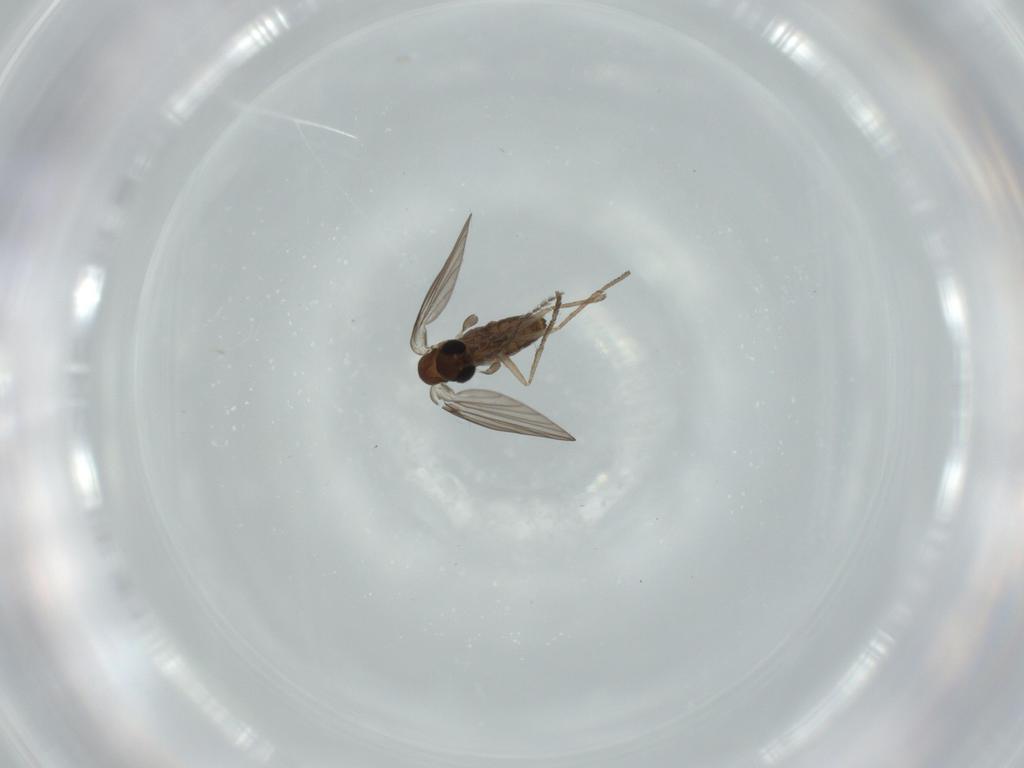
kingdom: Animalia
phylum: Arthropoda
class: Insecta
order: Diptera
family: Psychodidae
